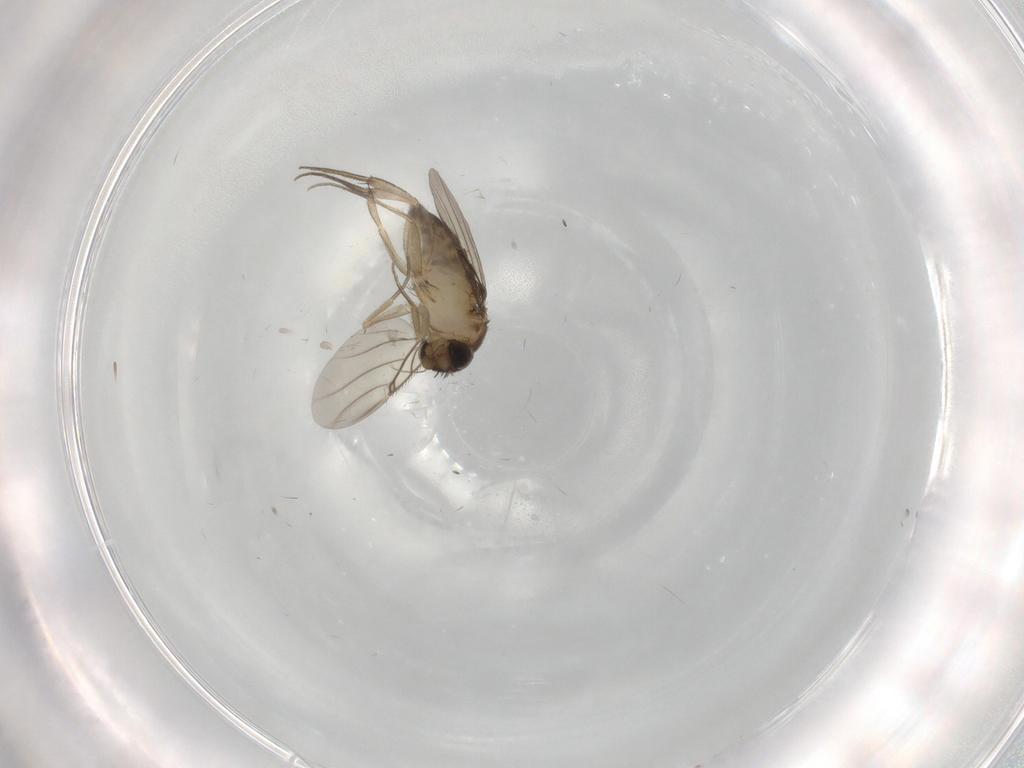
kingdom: Animalia
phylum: Arthropoda
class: Insecta
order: Diptera
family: Phoridae
